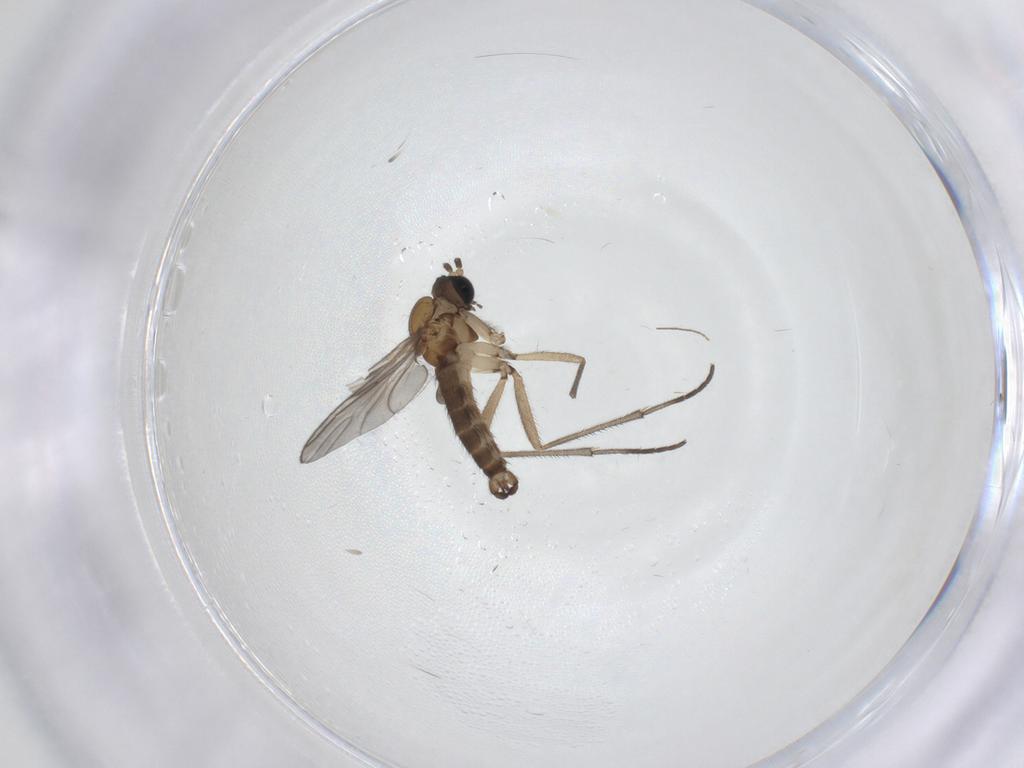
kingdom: Animalia
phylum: Arthropoda
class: Insecta
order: Diptera
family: Sciaridae
